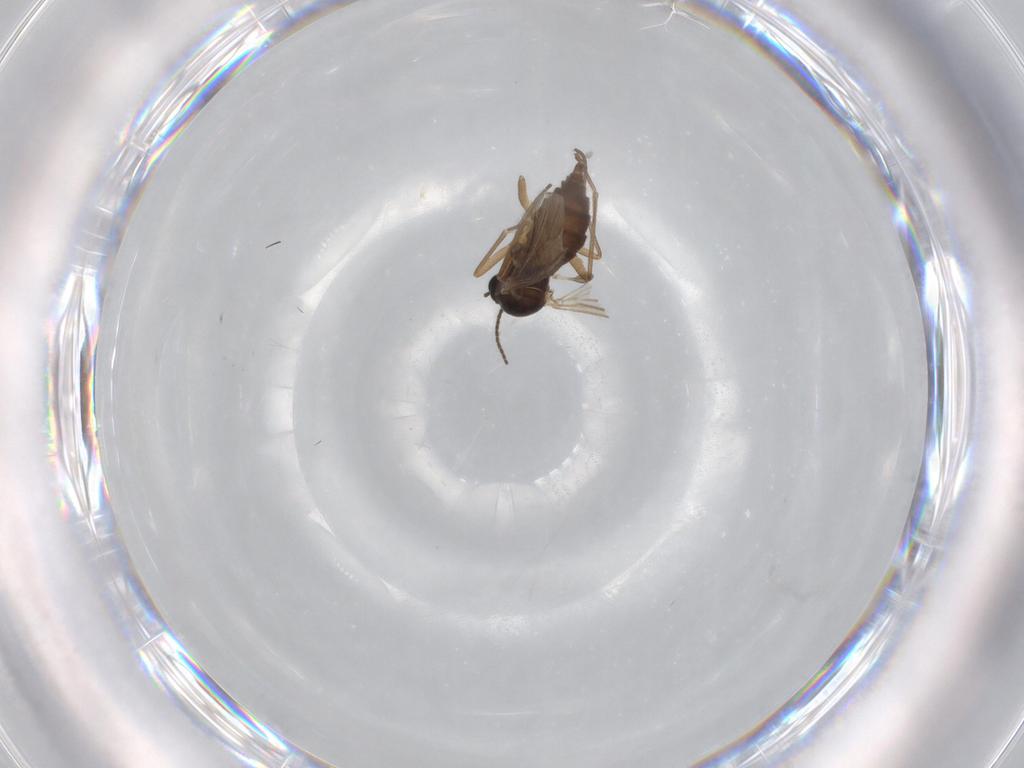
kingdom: Animalia
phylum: Arthropoda
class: Insecta
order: Diptera
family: Sciaridae
